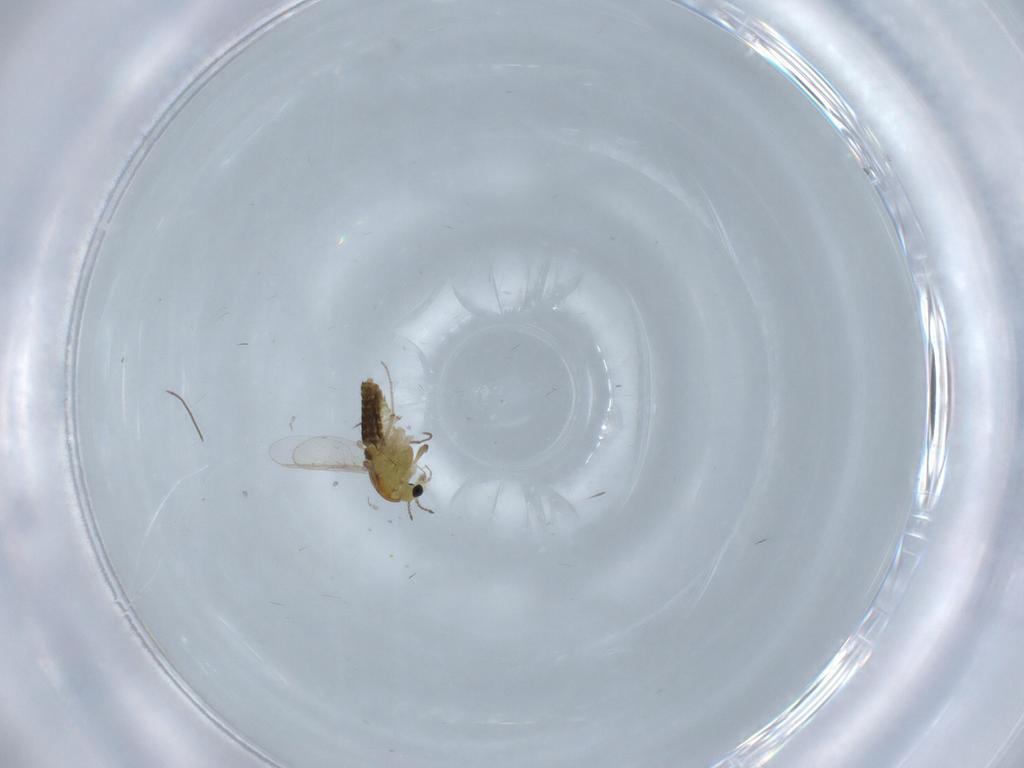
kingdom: Animalia
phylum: Arthropoda
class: Insecta
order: Diptera
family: Chironomidae
